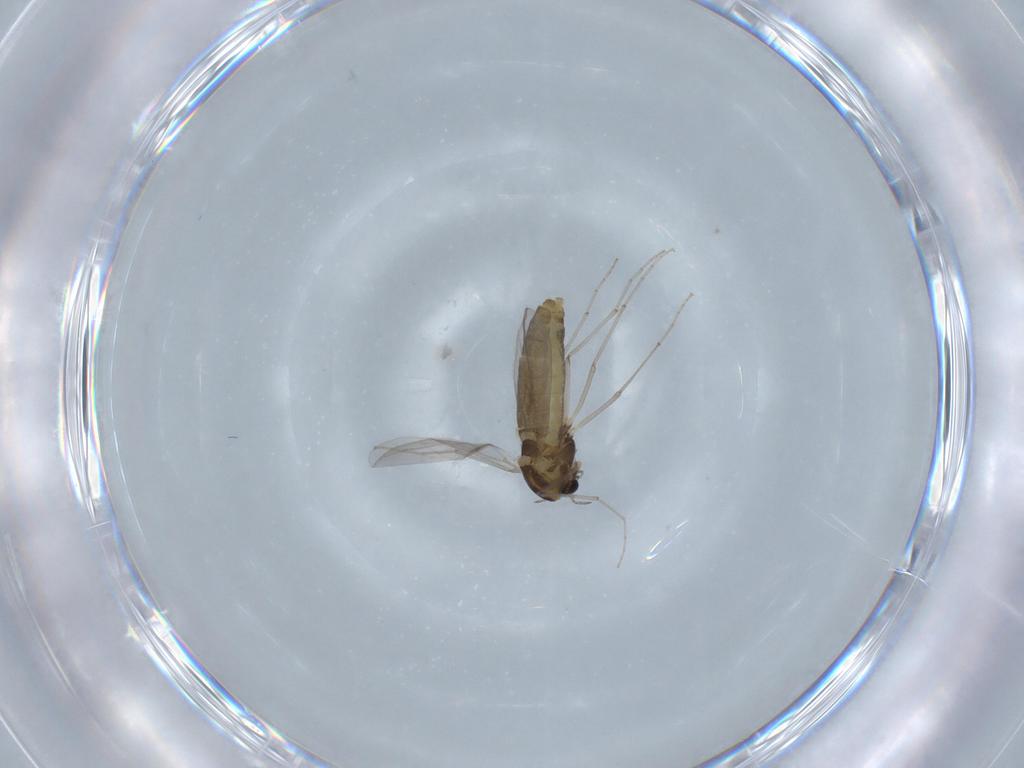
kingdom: Animalia
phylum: Arthropoda
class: Insecta
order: Diptera
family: Chironomidae
